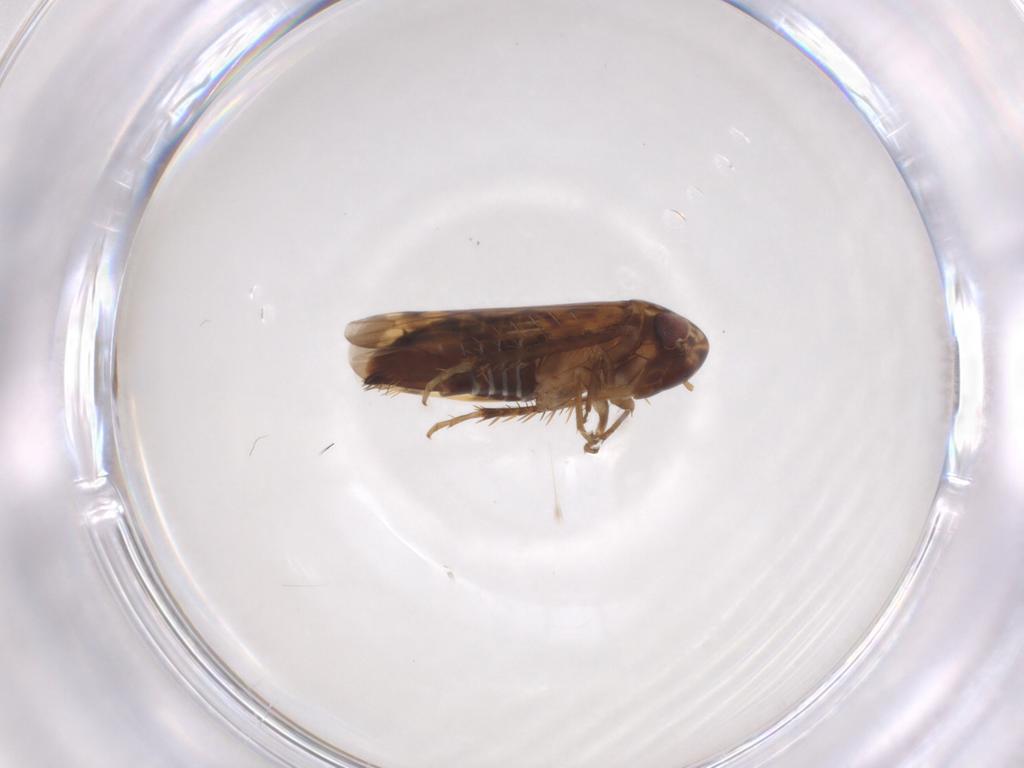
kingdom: Animalia
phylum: Arthropoda
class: Insecta
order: Hemiptera
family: Cicadellidae
